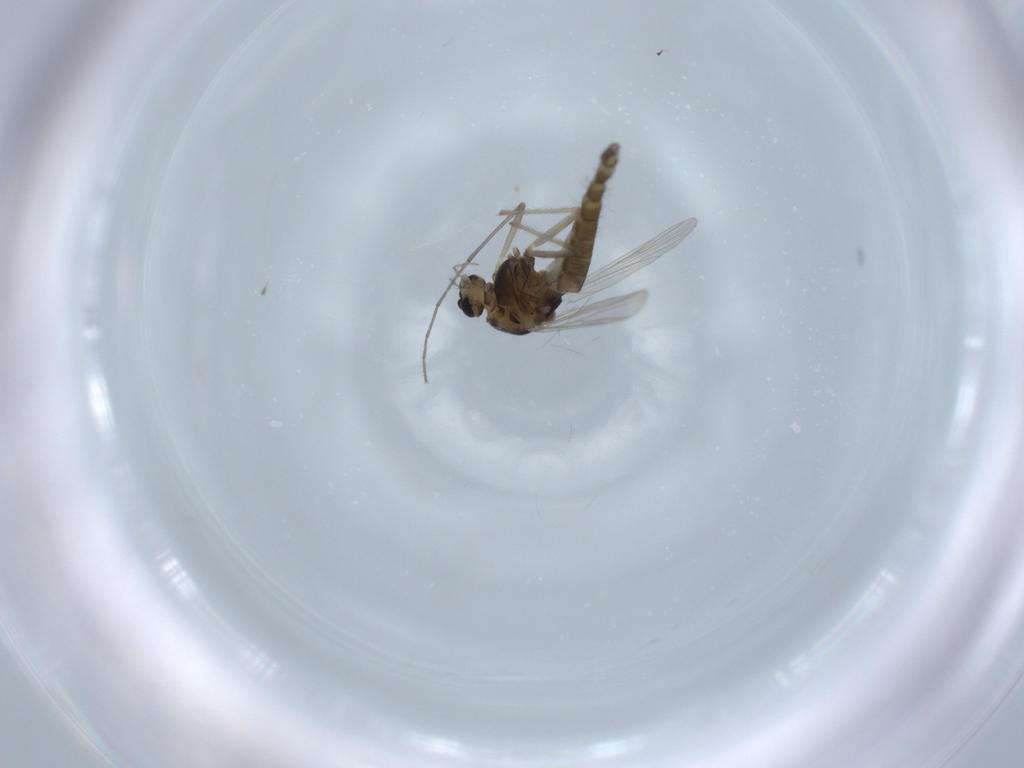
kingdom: Animalia
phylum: Arthropoda
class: Insecta
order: Diptera
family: Chironomidae
